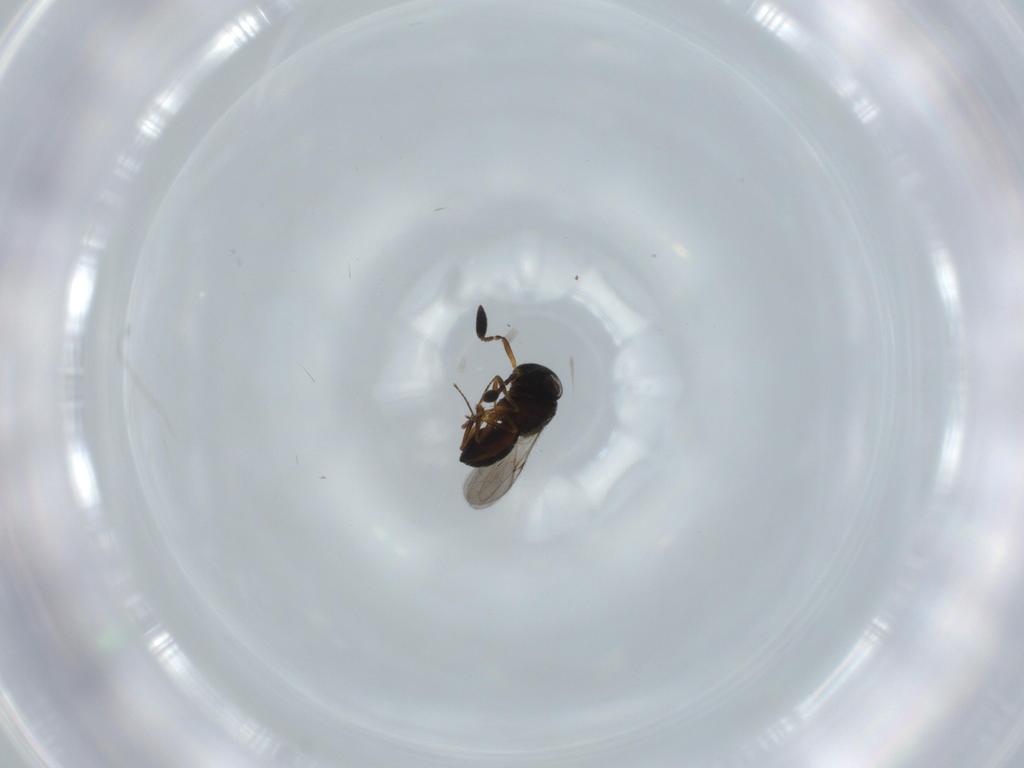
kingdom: Animalia
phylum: Arthropoda
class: Insecta
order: Hymenoptera
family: Scelionidae
